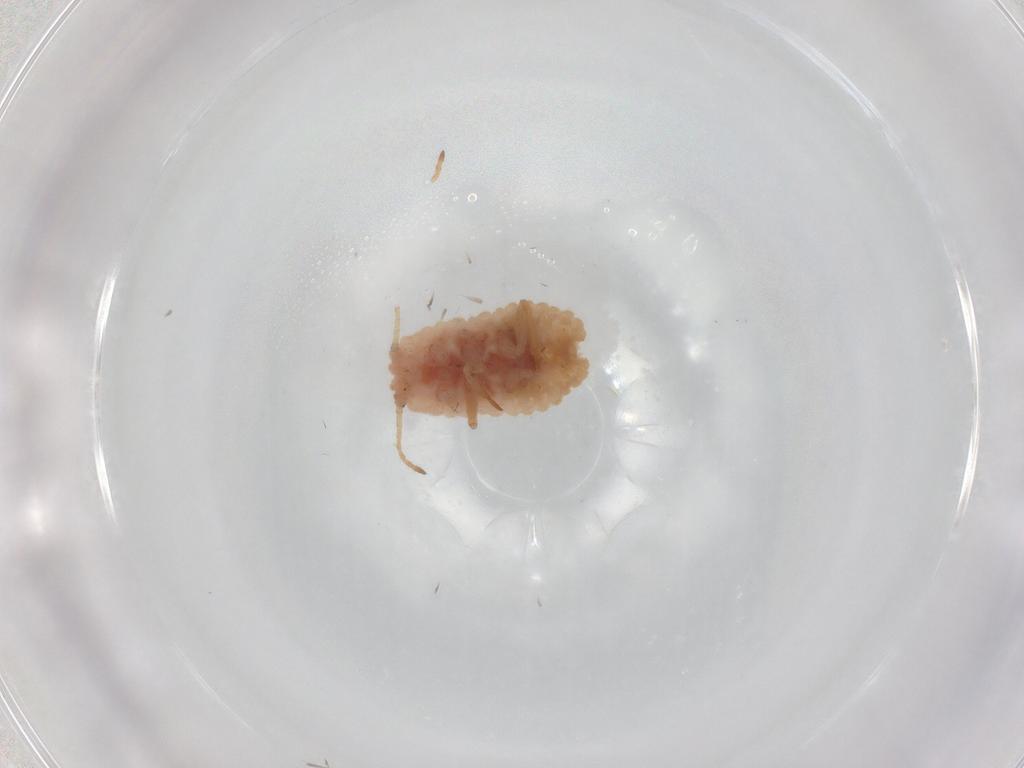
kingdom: Animalia
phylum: Arthropoda
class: Insecta
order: Hemiptera
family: Coccoidea_incertae_sedis
